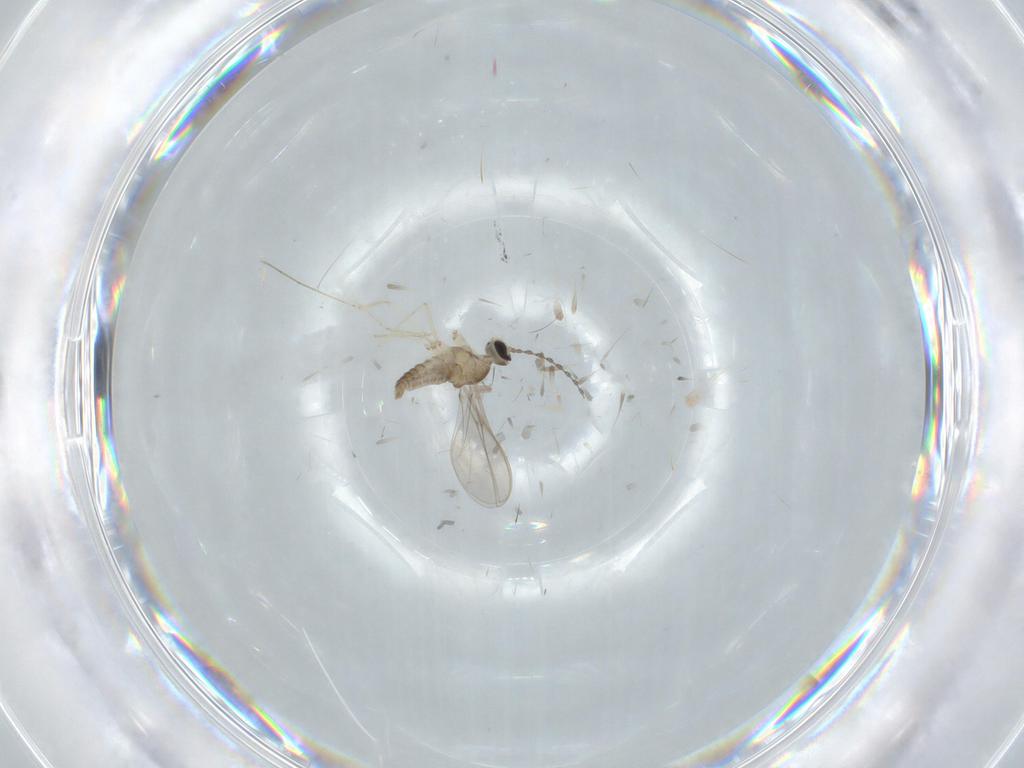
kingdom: Animalia
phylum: Arthropoda
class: Insecta
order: Diptera
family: Cecidomyiidae
